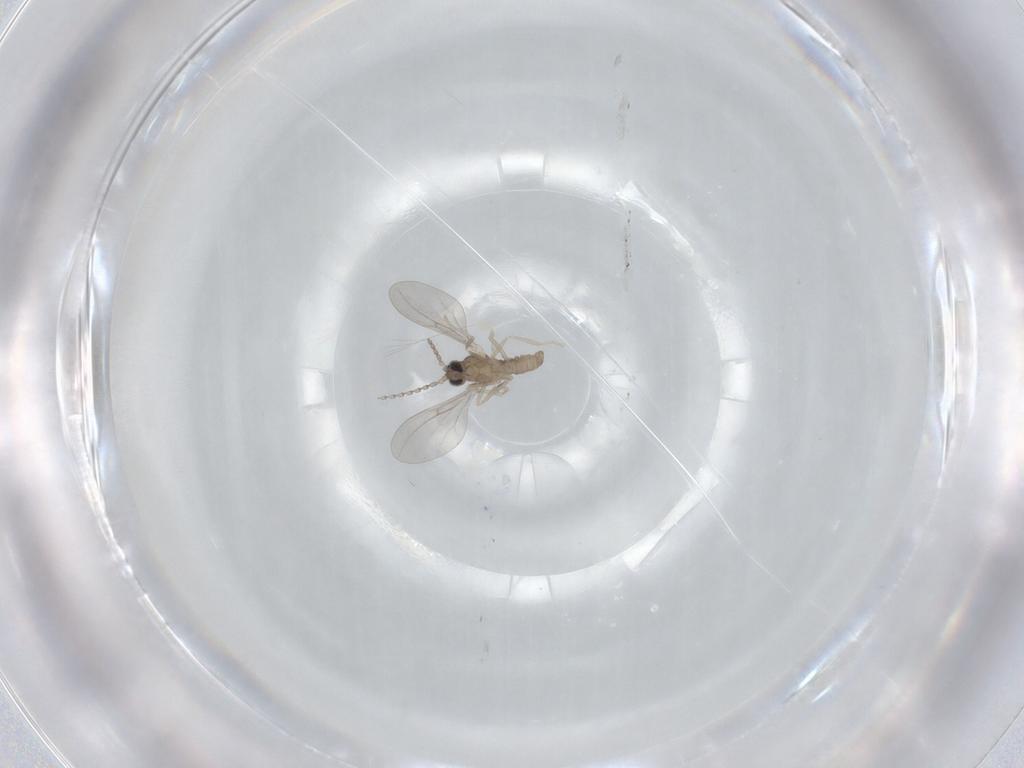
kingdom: Animalia
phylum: Arthropoda
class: Insecta
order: Diptera
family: Cecidomyiidae
